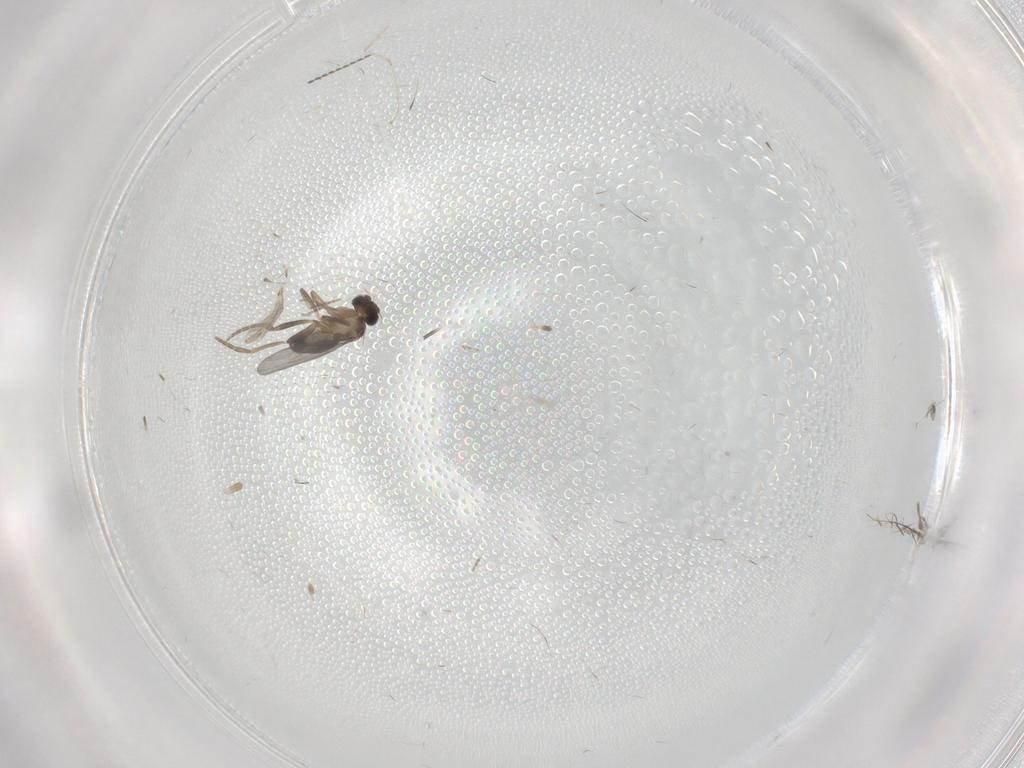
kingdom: Animalia
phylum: Arthropoda
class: Insecta
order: Diptera
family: Cecidomyiidae
